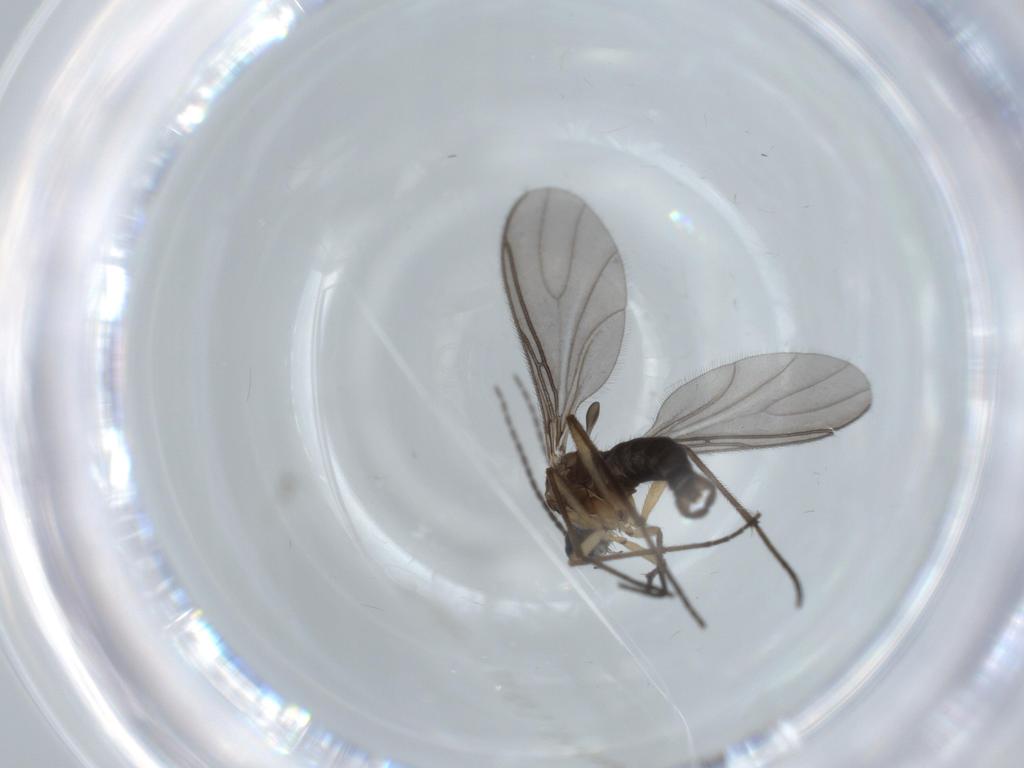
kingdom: Animalia
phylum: Arthropoda
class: Insecta
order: Diptera
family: Sciaridae
